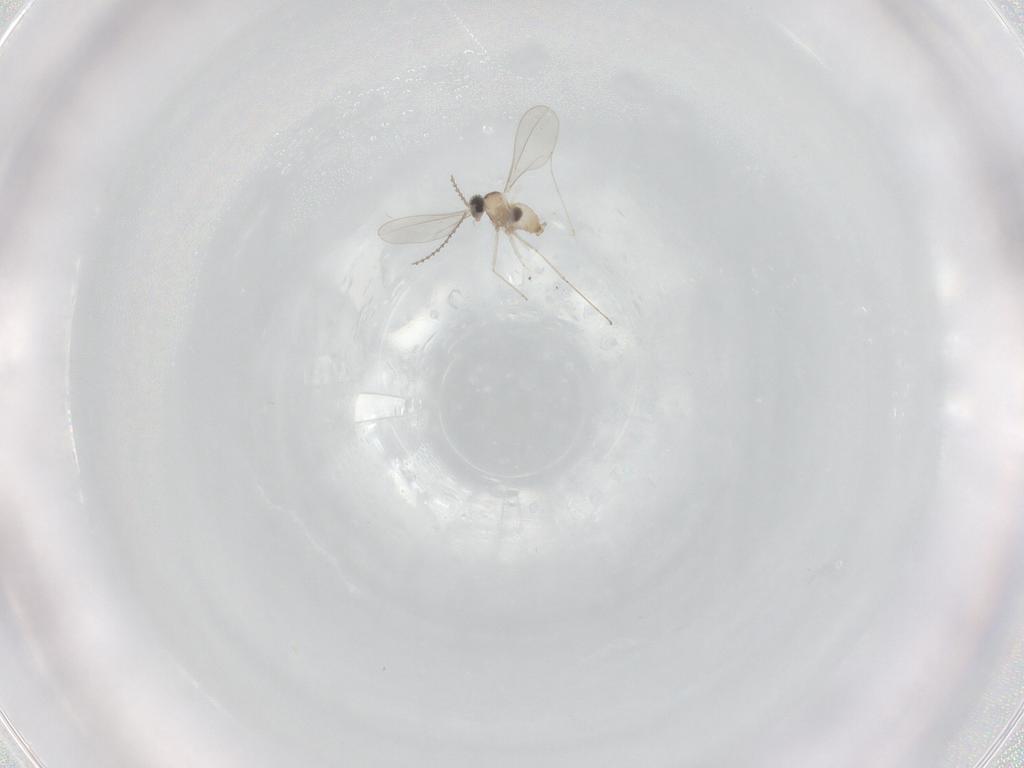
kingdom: Animalia
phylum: Arthropoda
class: Insecta
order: Diptera
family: Cecidomyiidae
